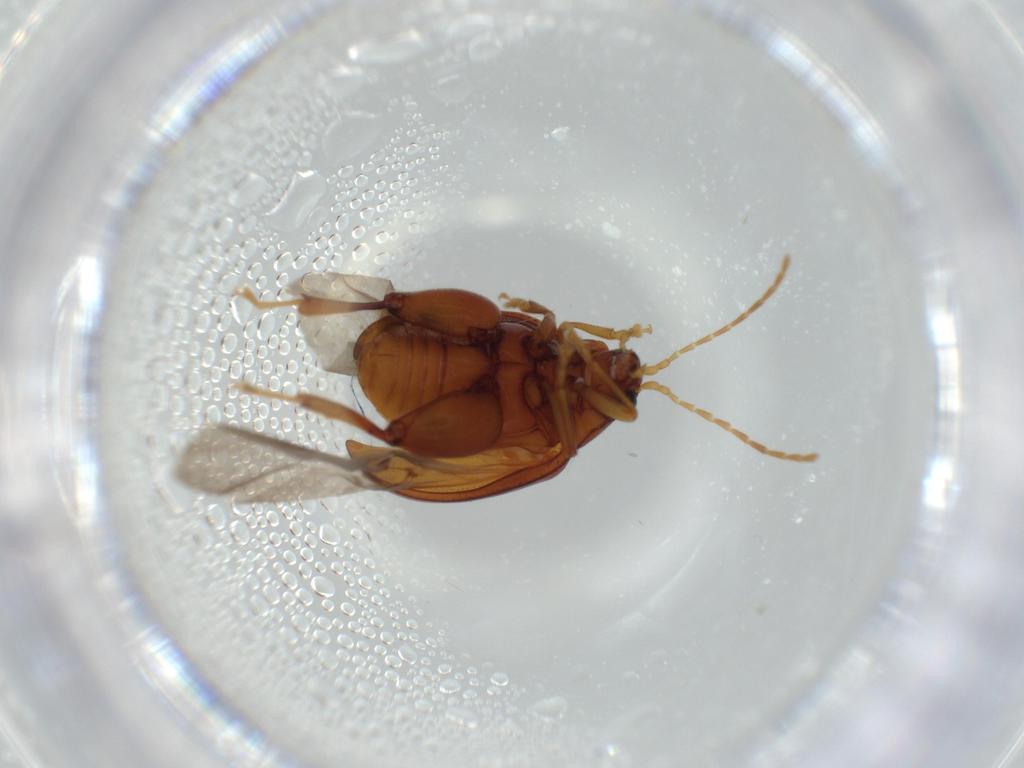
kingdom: Animalia
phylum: Arthropoda
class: Insecta
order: Coleoptera
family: Chrysomelidae
